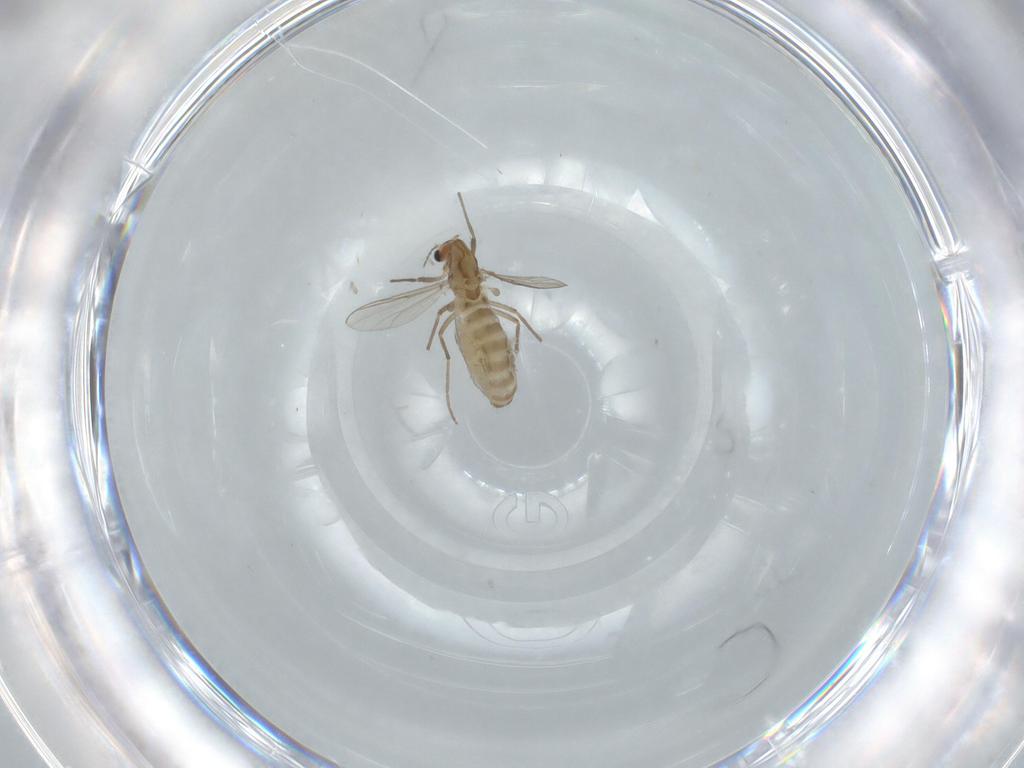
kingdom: Animalia
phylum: Arthropoda
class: Insecta
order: Diptera
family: Chironomidae
